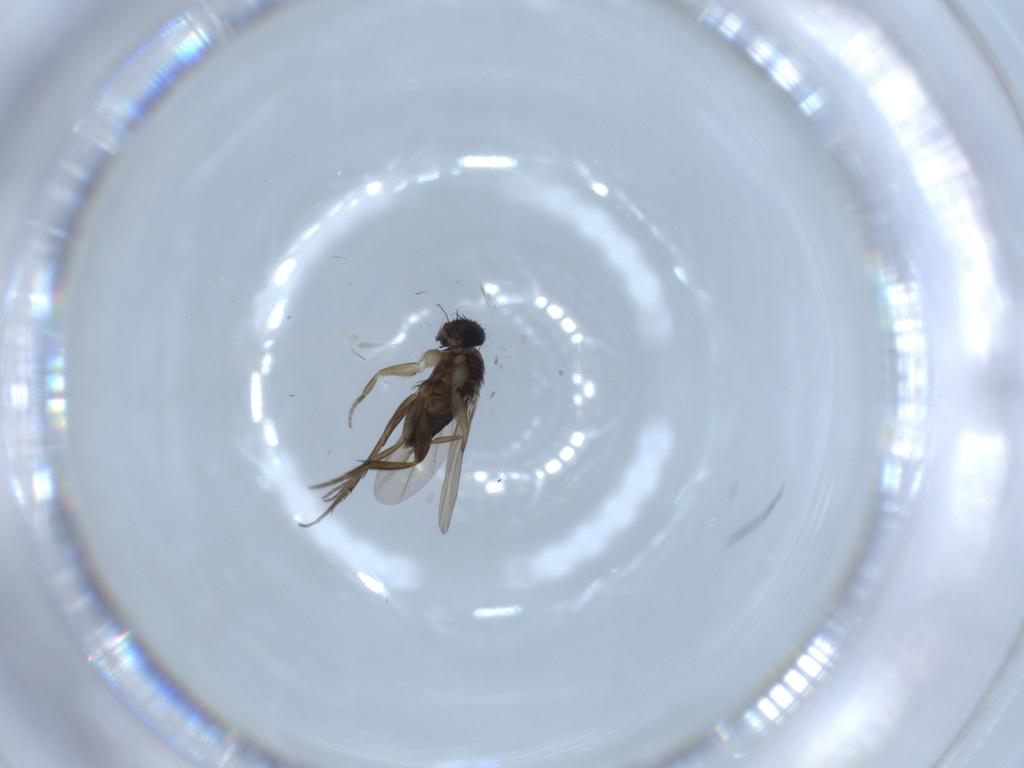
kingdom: Animalia
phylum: Arthropoda
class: Insecta
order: Diptera
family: Phoridae
